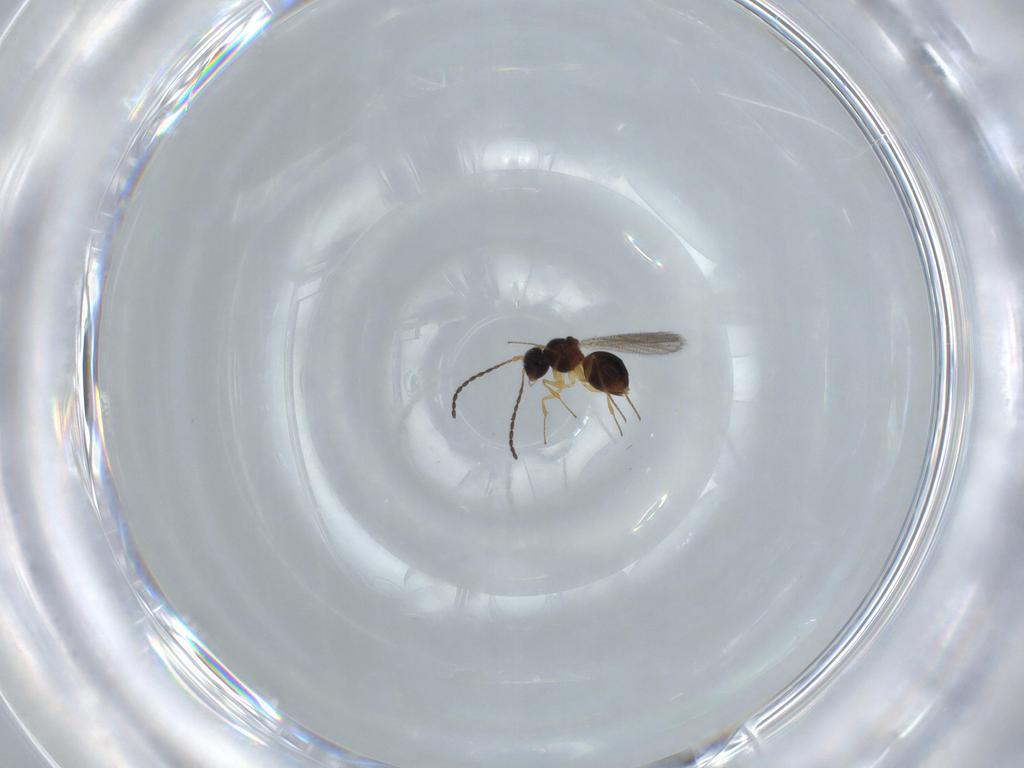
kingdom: Animalia
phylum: Arthropoda
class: Insecta
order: Hymenoptera
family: Figitidae
